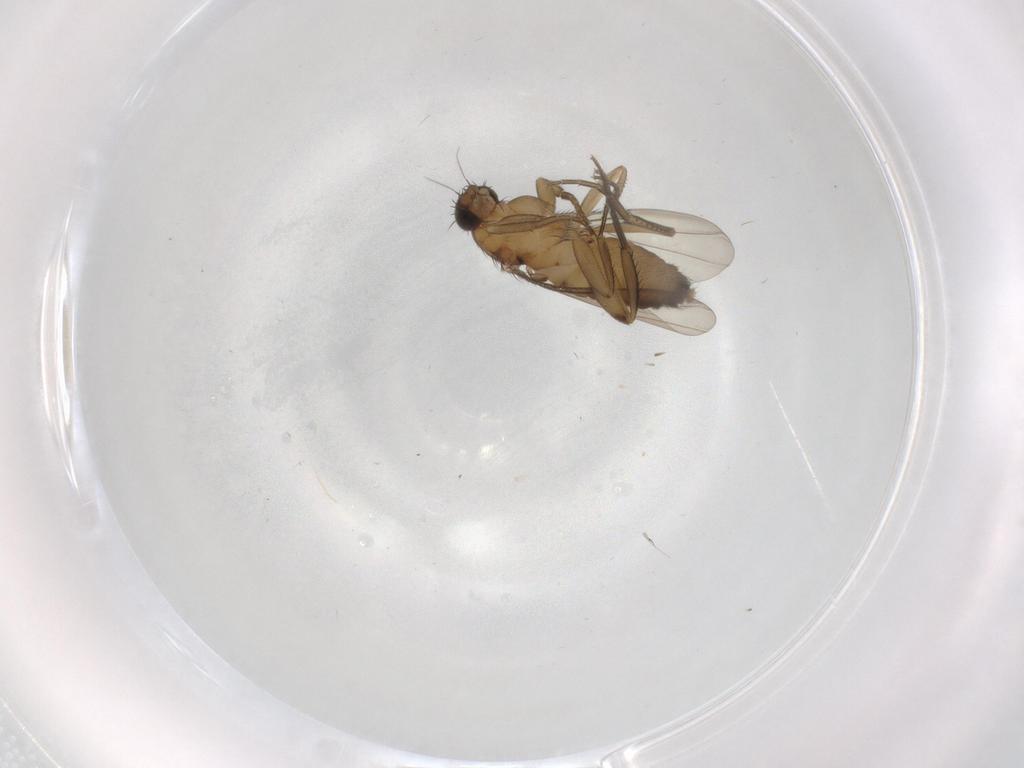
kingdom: Animalia
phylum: Arthropoda
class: Insecta
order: Diptera
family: Phoridae
